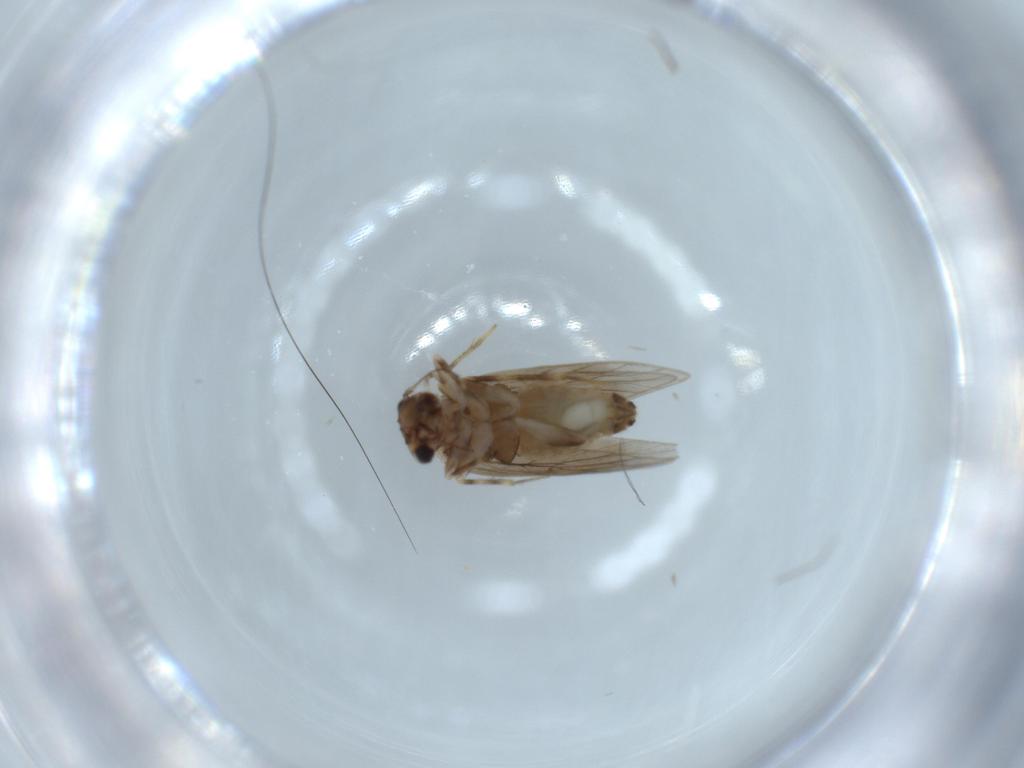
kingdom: Animalia
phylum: Arthropoda
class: Insecta
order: Psocodea
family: Lepidopsocidae
